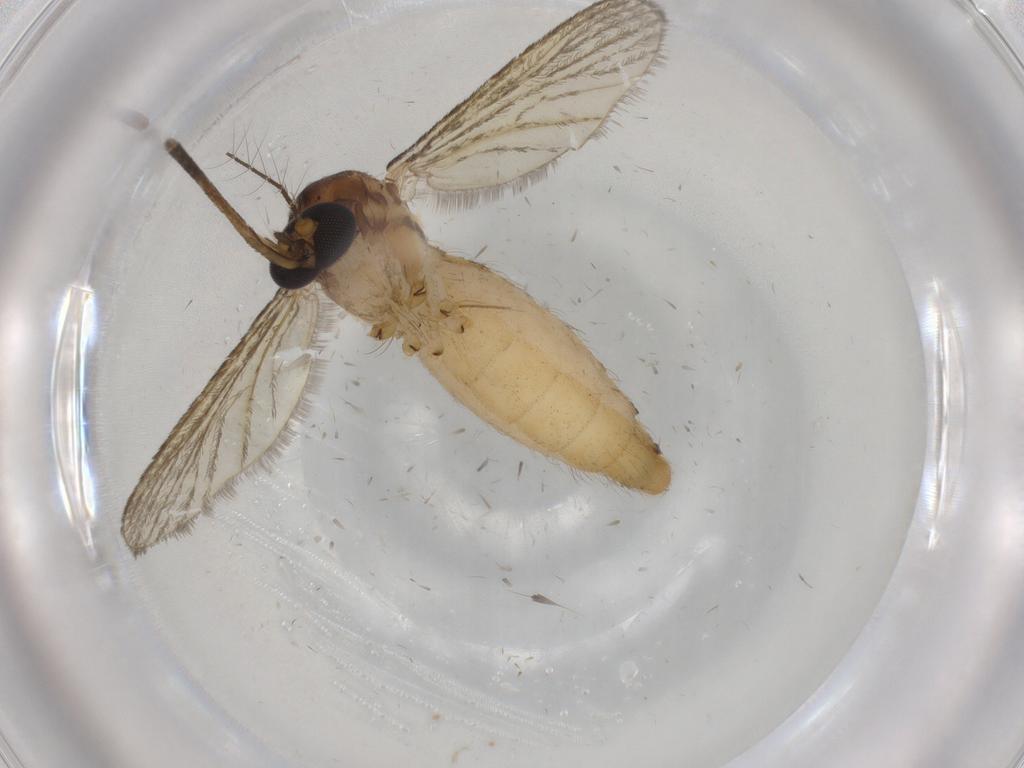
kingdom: Animalia
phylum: Arthropoda
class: Insecta
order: Diptera
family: Culicidae
